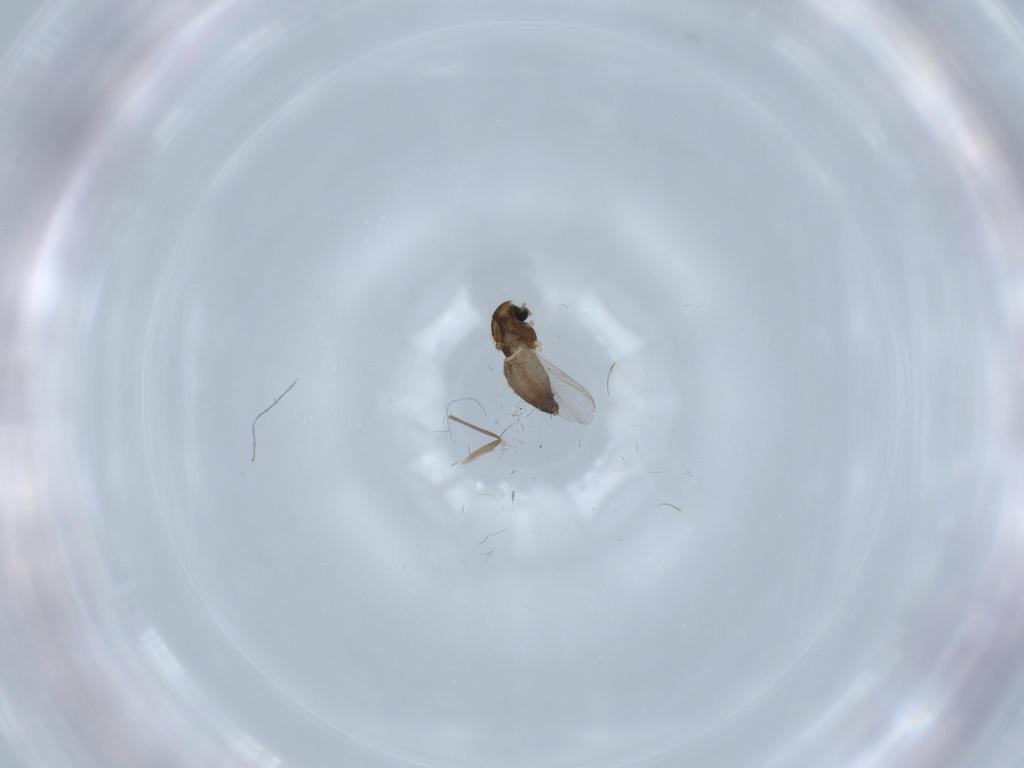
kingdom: Animalia
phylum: Arthropoda
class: Insecta
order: Diptera
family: Chironomidae
